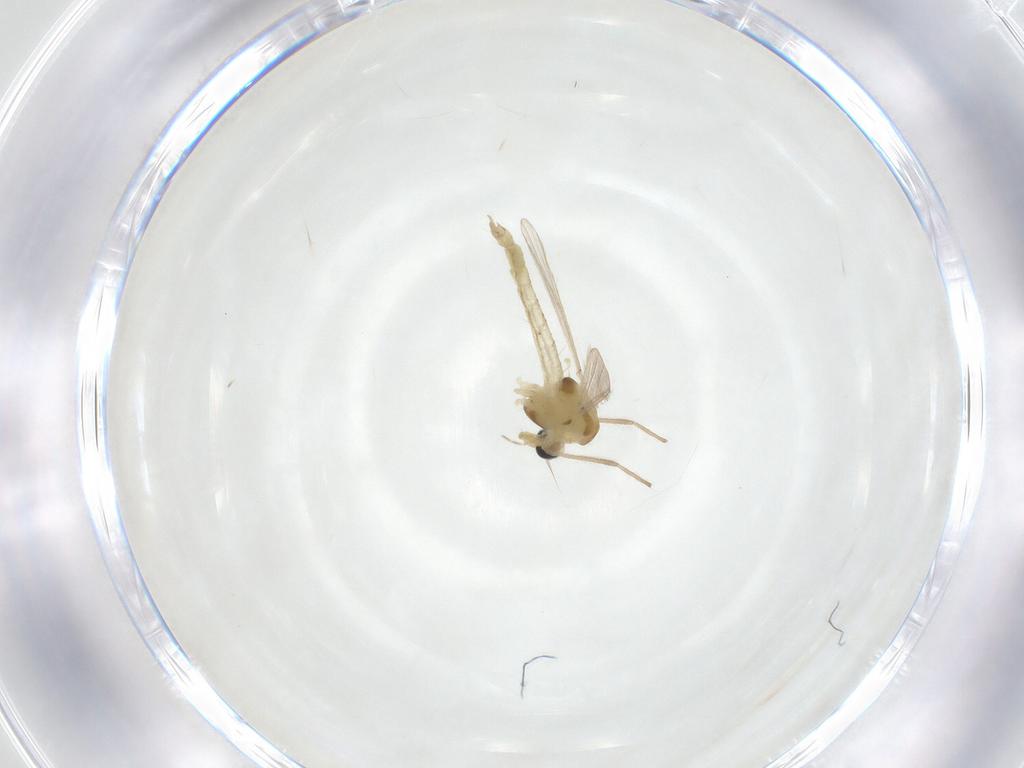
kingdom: Animalia
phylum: Arthropoda
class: Insecta
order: Diptera
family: Chironomidae
